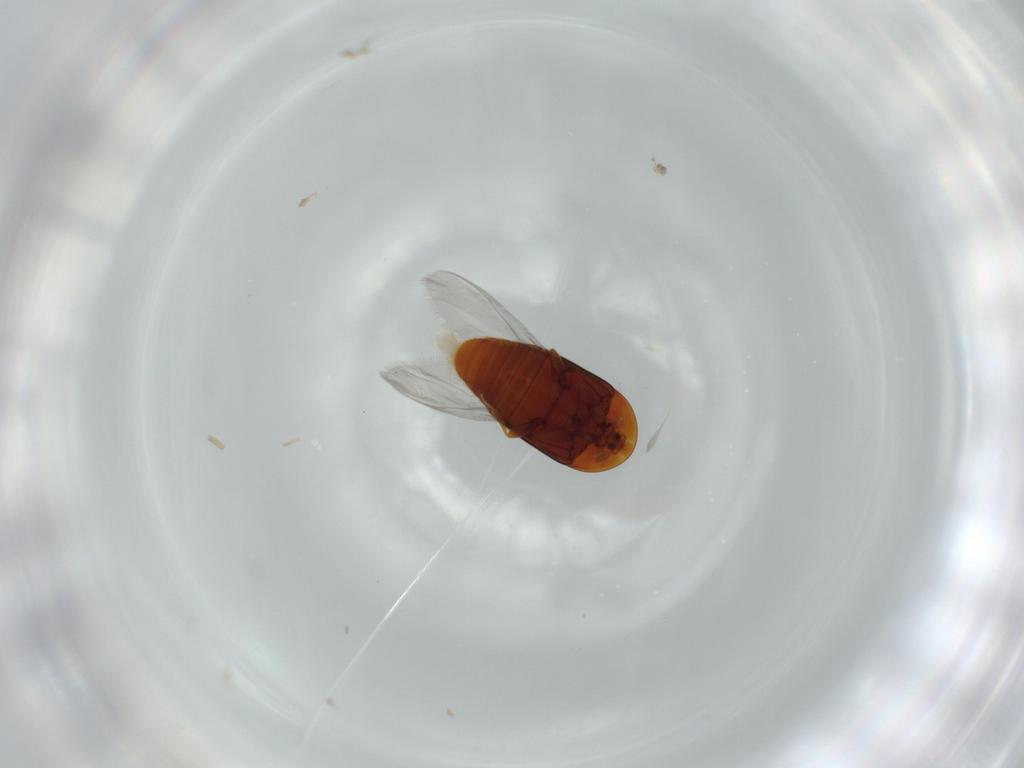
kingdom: Animalia
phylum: Arthropoda
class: Insecta
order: Coleoptera
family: Corylophidae
